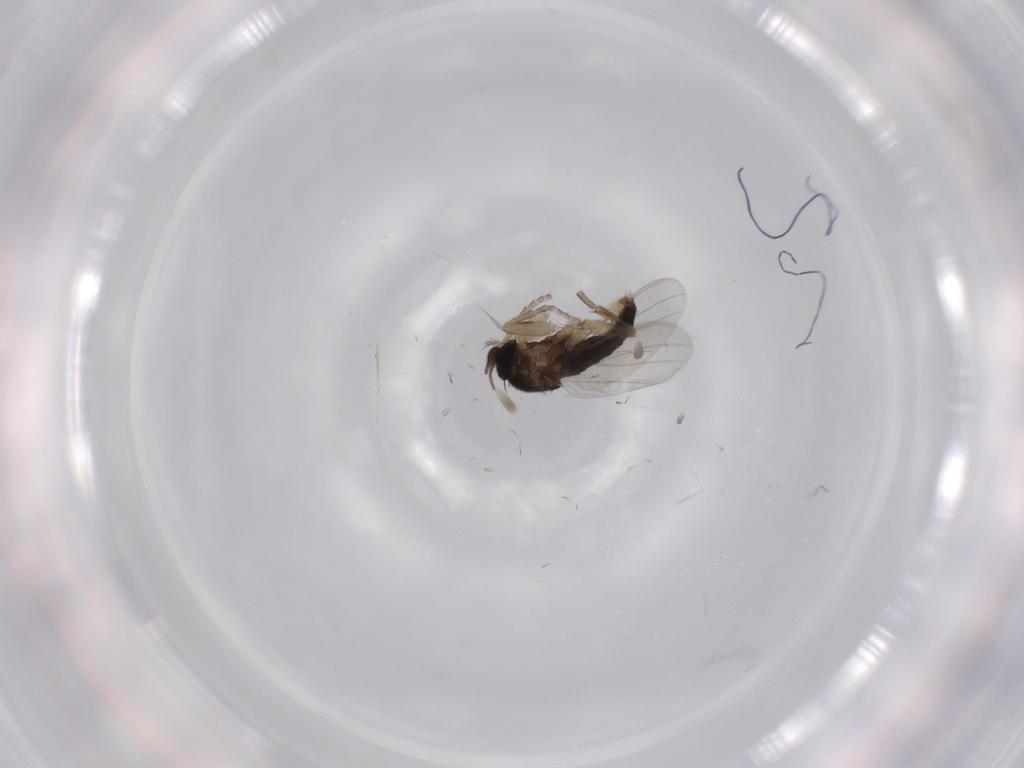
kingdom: Animalia
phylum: Arthropoda
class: Insecta
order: Diptera
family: Phoridae
